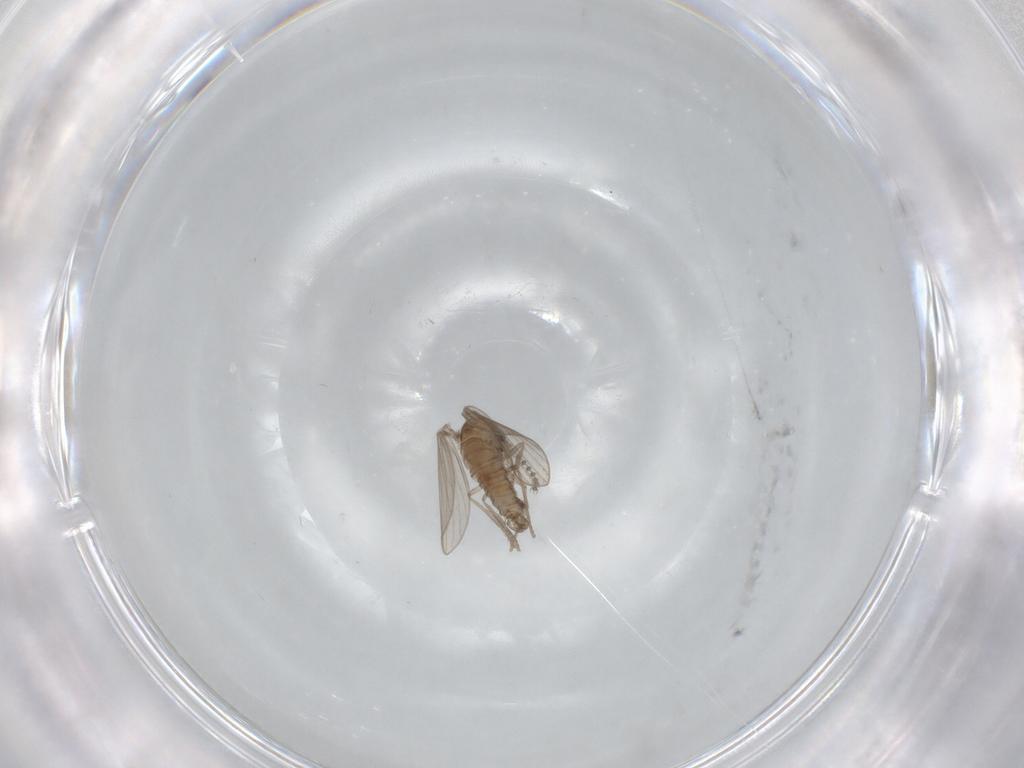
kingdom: Animalia
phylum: Arthropoda
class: Insecta
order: Diptera
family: Psychodidae
